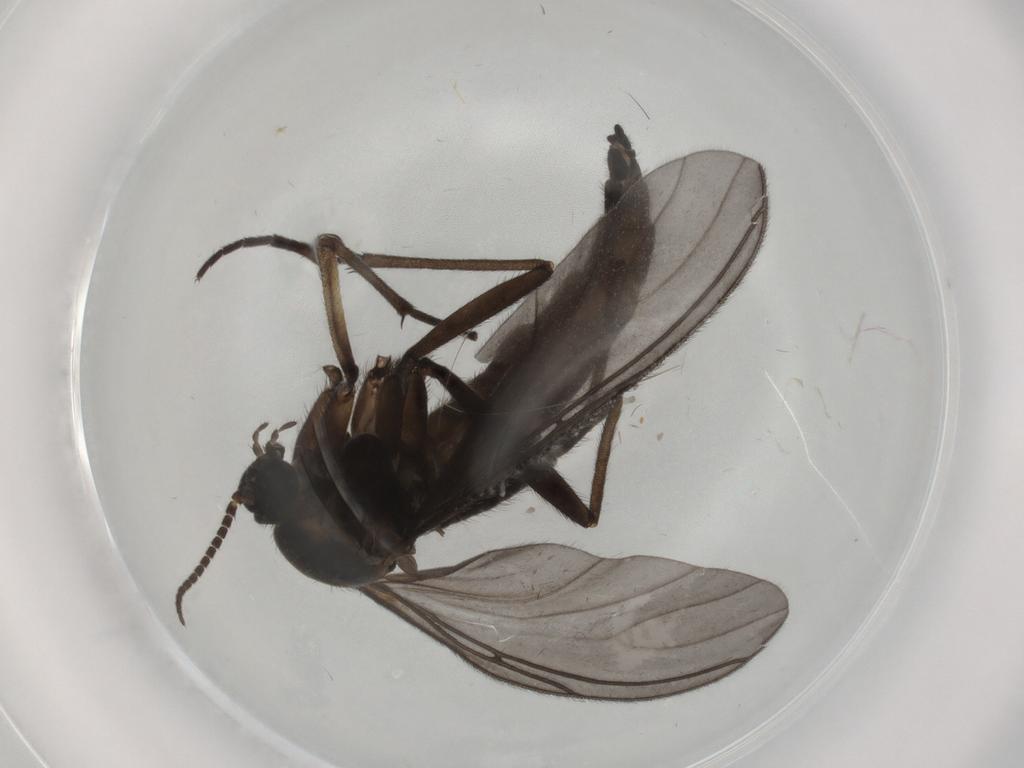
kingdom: Animalia
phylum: Arthropoda
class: Insecta
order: Diptera
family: Sciaridae
